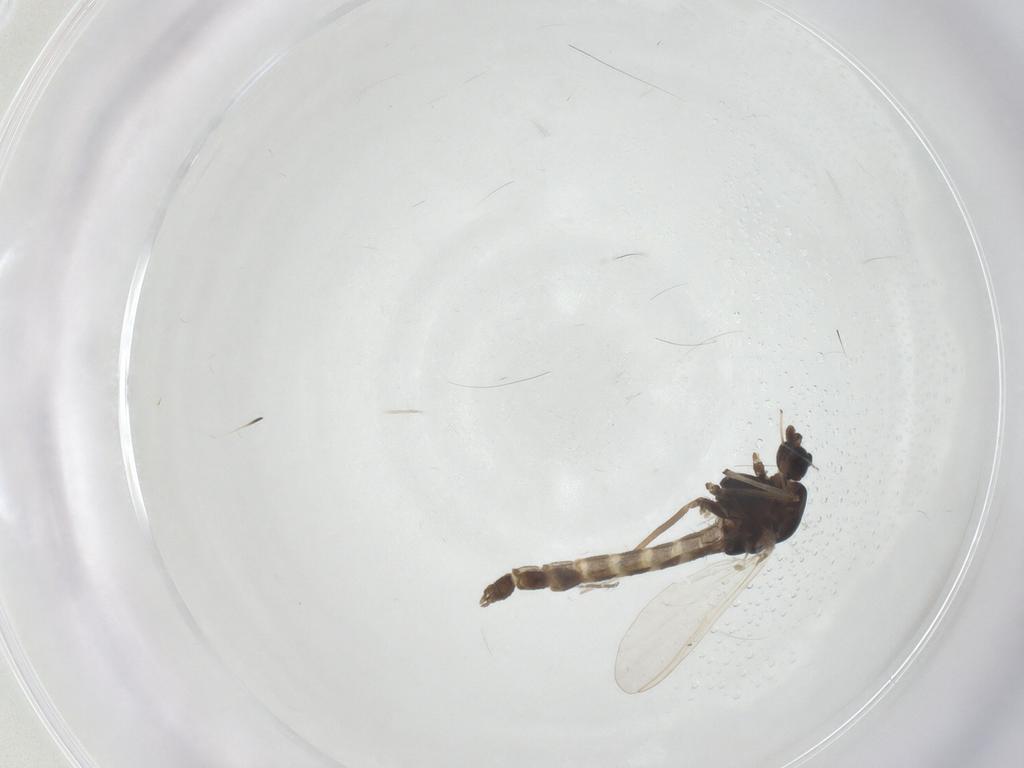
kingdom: Animalia
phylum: Arthropoda
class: Insecta
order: Diptera
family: Chironomidae
